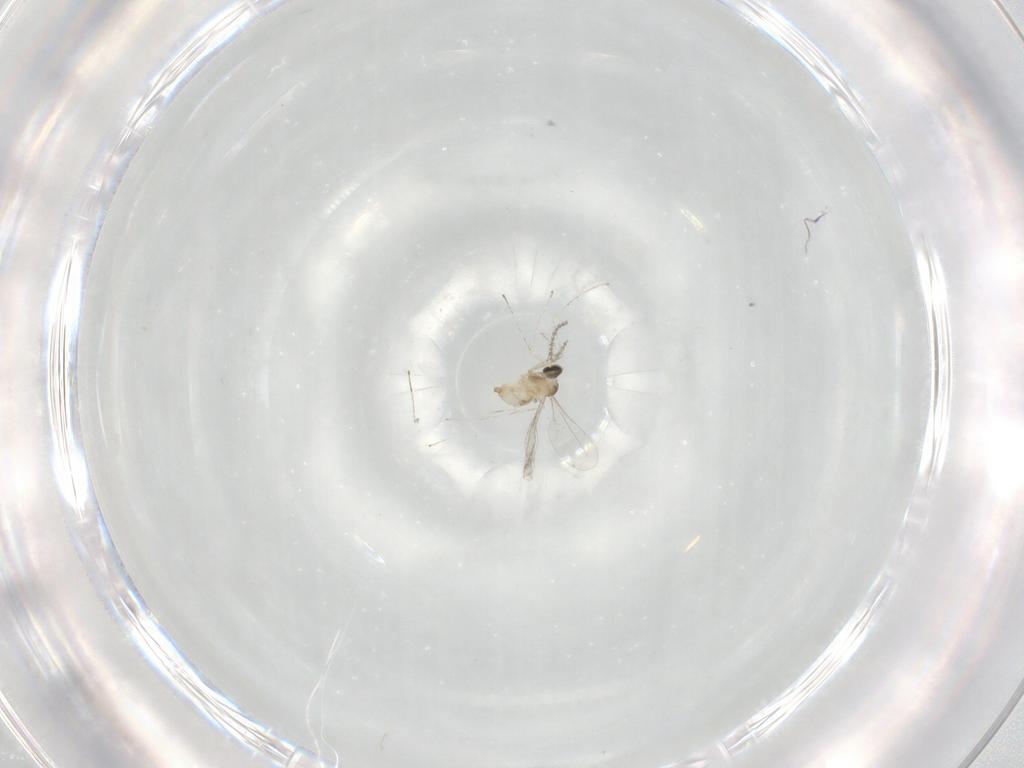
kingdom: Animalia
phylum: Arthropoda
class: Insecta
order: Diptera
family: Cecidomyiidae
